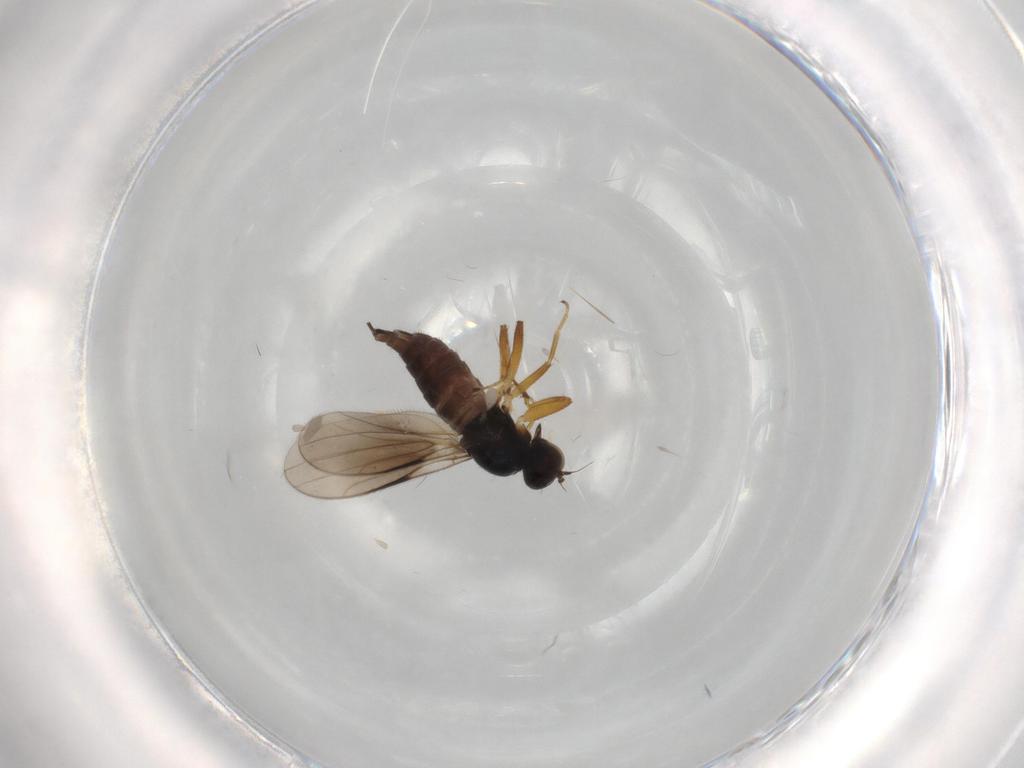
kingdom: Animalia
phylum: Arthropoda
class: Insecta
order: Diptera
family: Hybotidae
